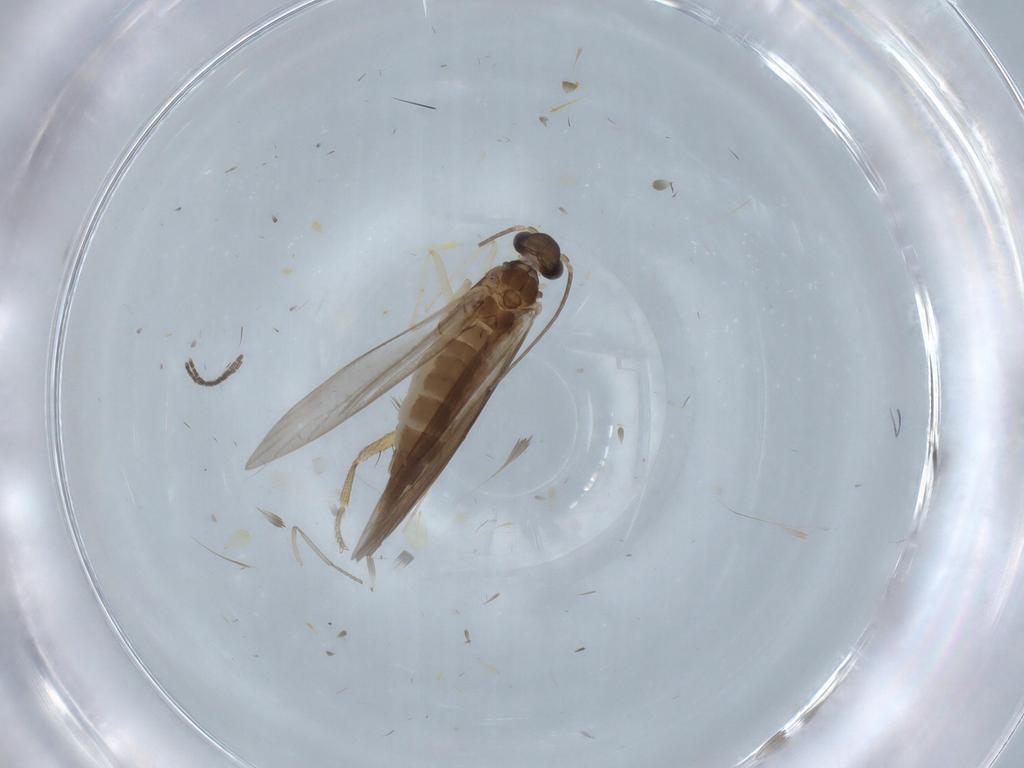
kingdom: Animalia
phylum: Arthropoda
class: Insecta
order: Trichoptera
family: Xiphocentronidae
